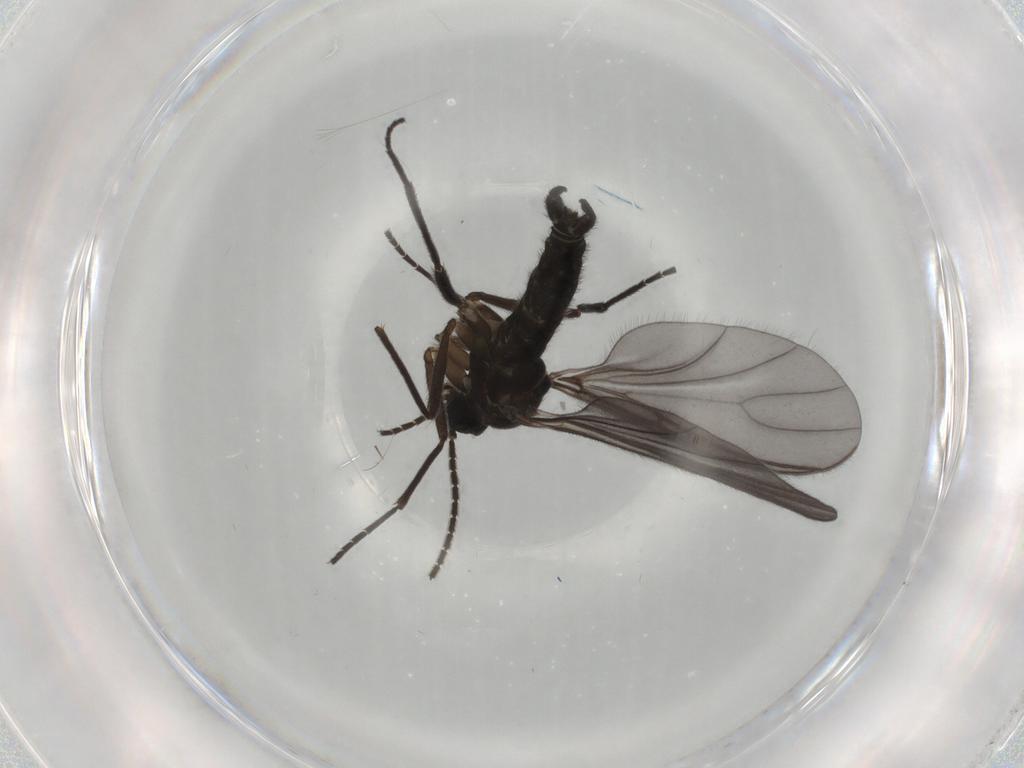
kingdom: Animalia
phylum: Arthropoda
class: Insecta
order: Diptera
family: Sciaridae
